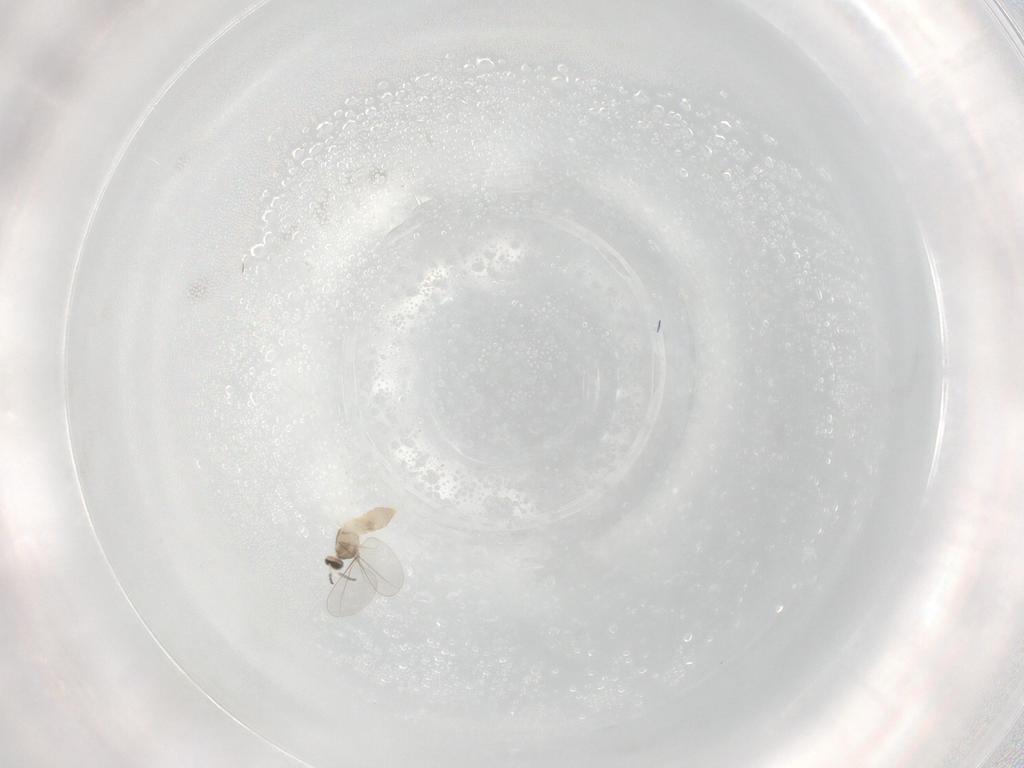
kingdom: Animalia
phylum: Arthropoda
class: Insecta
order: Diptera
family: Cecidomyiidae
